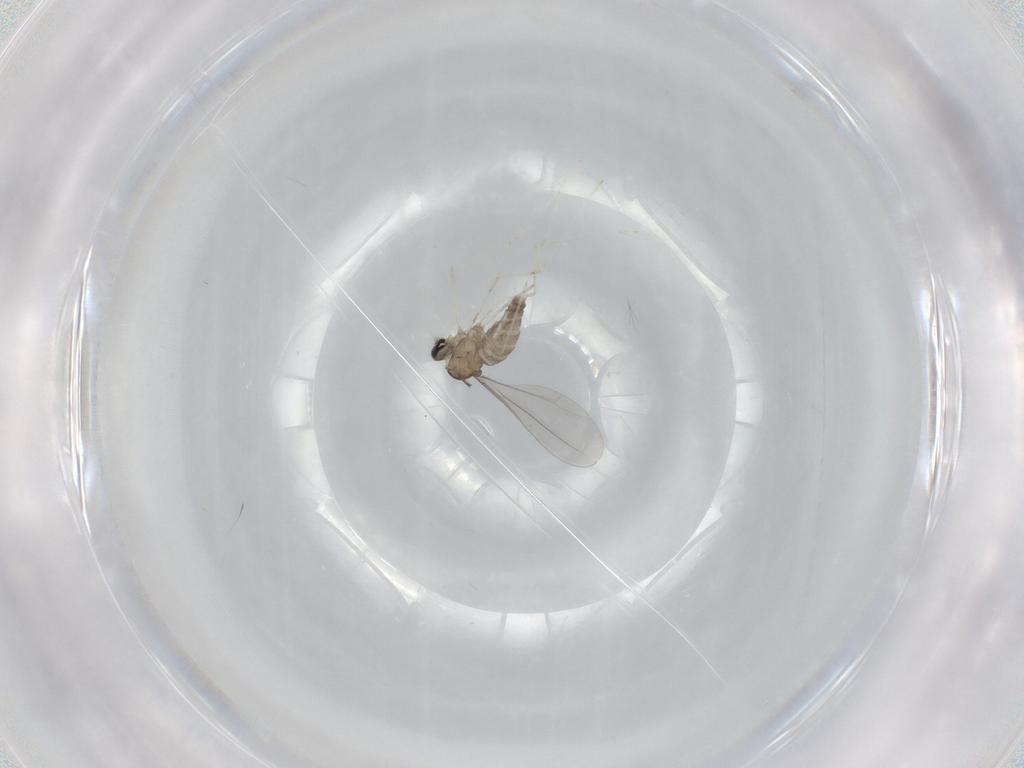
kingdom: Animalia
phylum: Arthropoda
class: Insecta
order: Diptera
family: Cecidomyiidae
